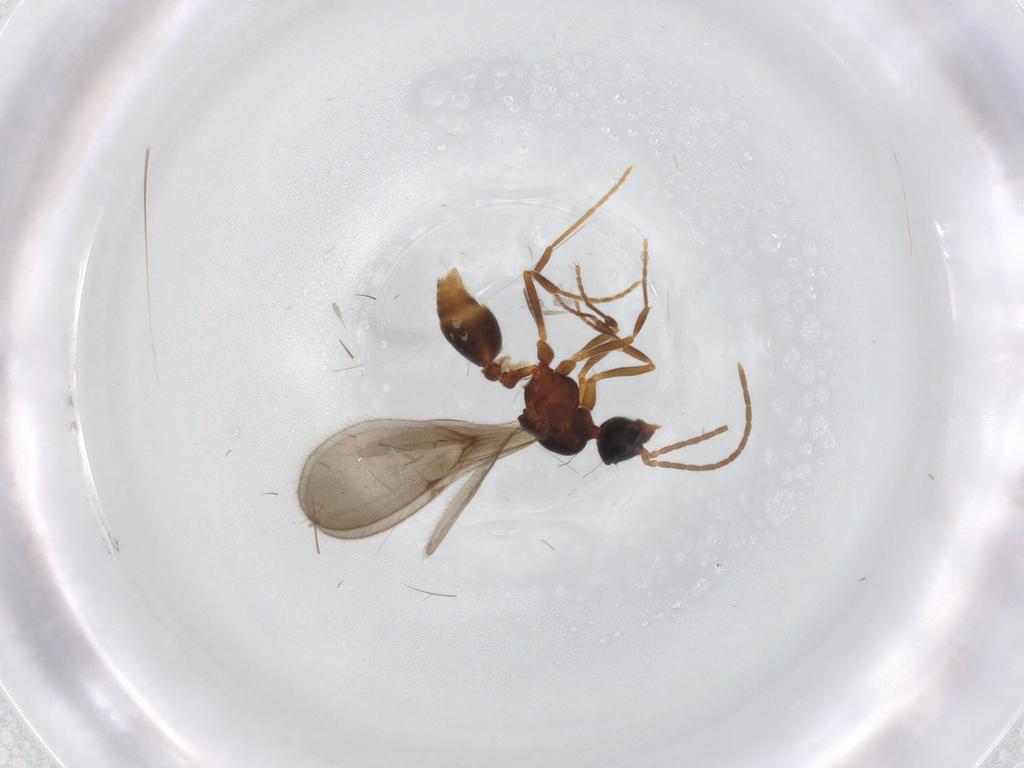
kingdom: Animalia
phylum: Arthropoda
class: Insecta
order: Hymenoptera
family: Formicidae
